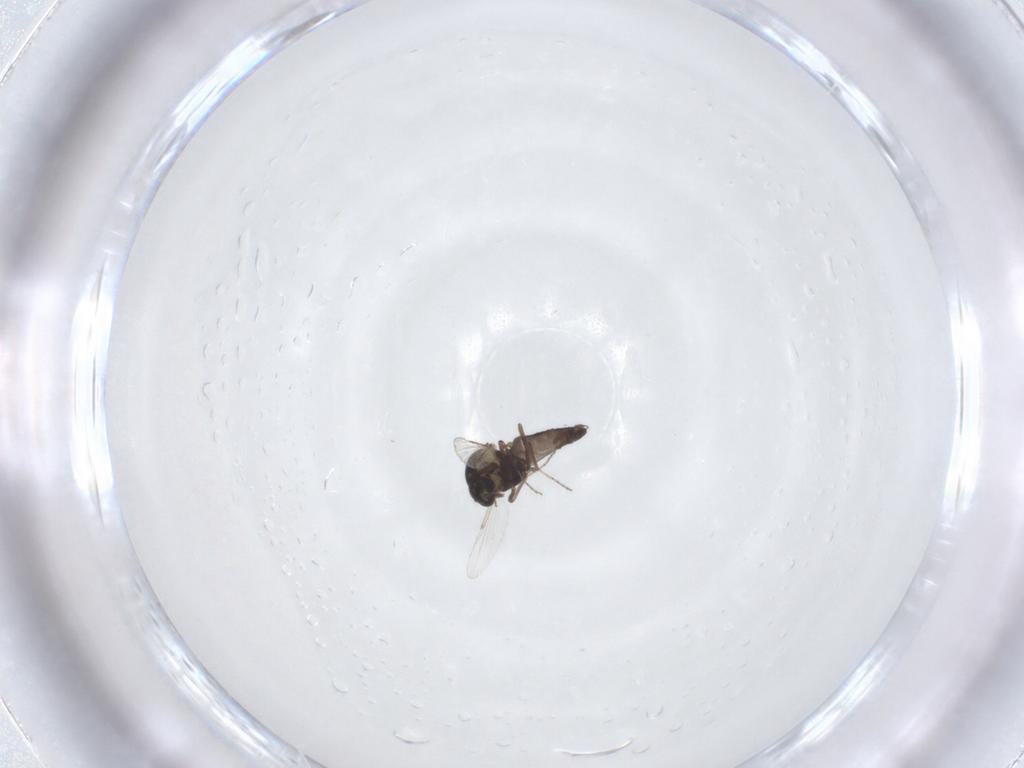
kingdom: Animalia
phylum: Arthropoda
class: Insecta
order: Diptera
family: Ceratopogonidae
